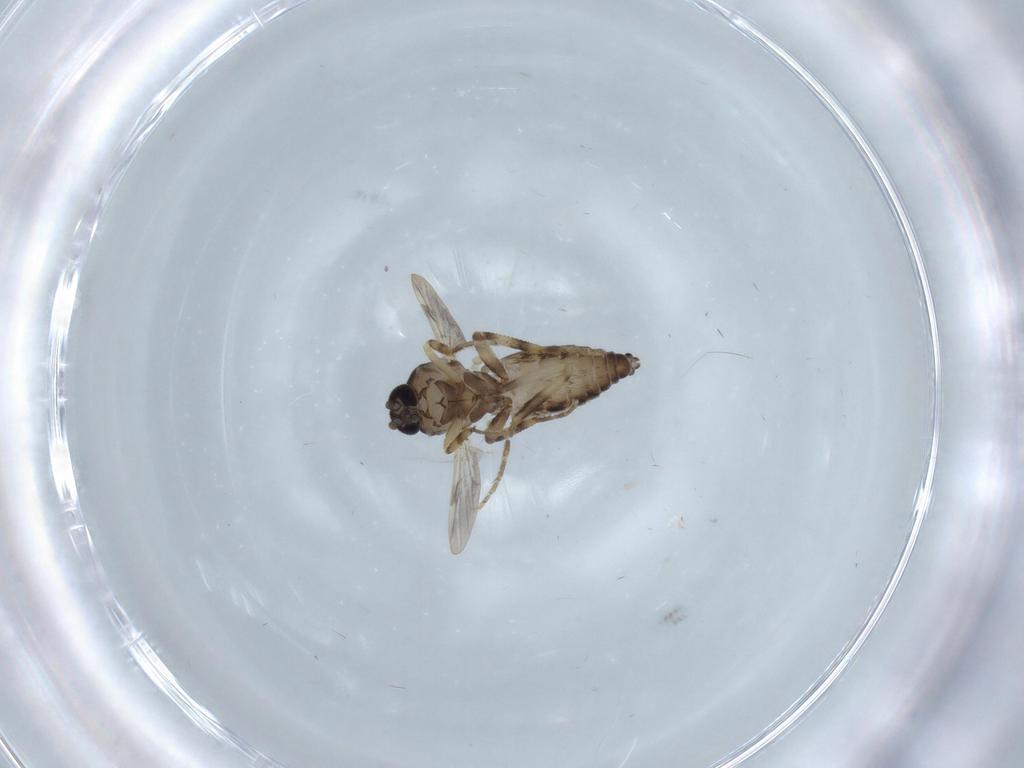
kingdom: Animalia
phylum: Arthropoda
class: Insecta
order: Diptera
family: Ceratopogonidae
